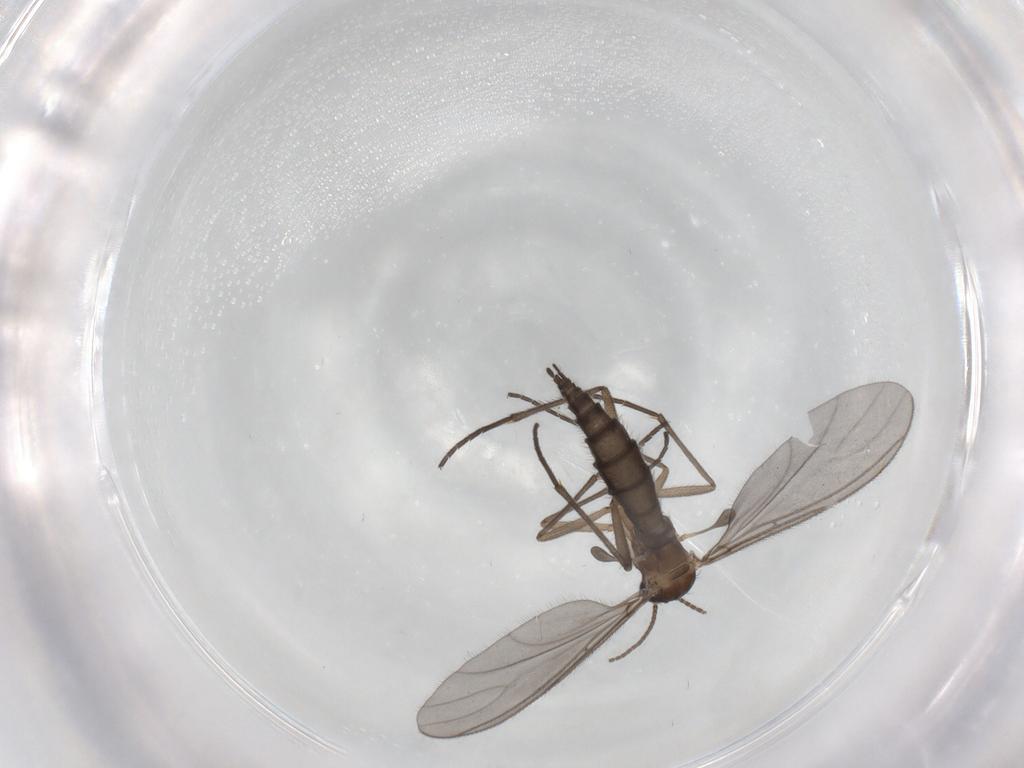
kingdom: Animalia
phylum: Arthropoda
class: Insecta
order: Diptera
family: Sciaridae
